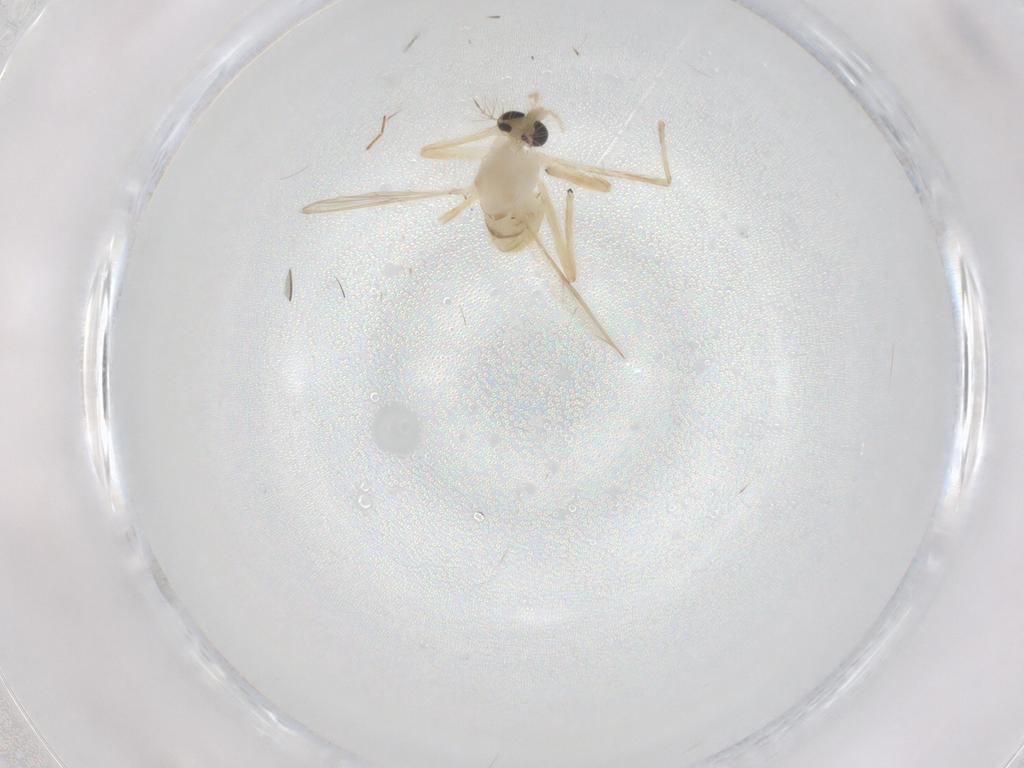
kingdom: Animalia
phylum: Arthropoda
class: Insecta
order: Diptera
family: Chironomidae
